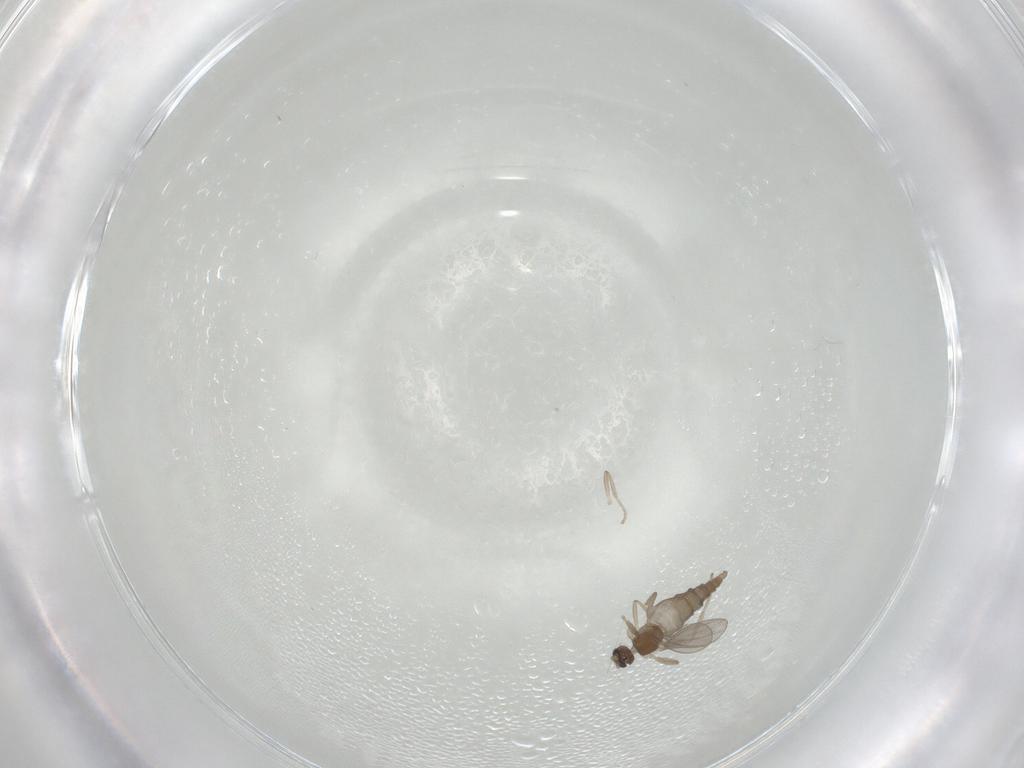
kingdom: Animalia
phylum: Arthropoda
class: Insecta
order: Diptera
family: Cecidomyiidae
